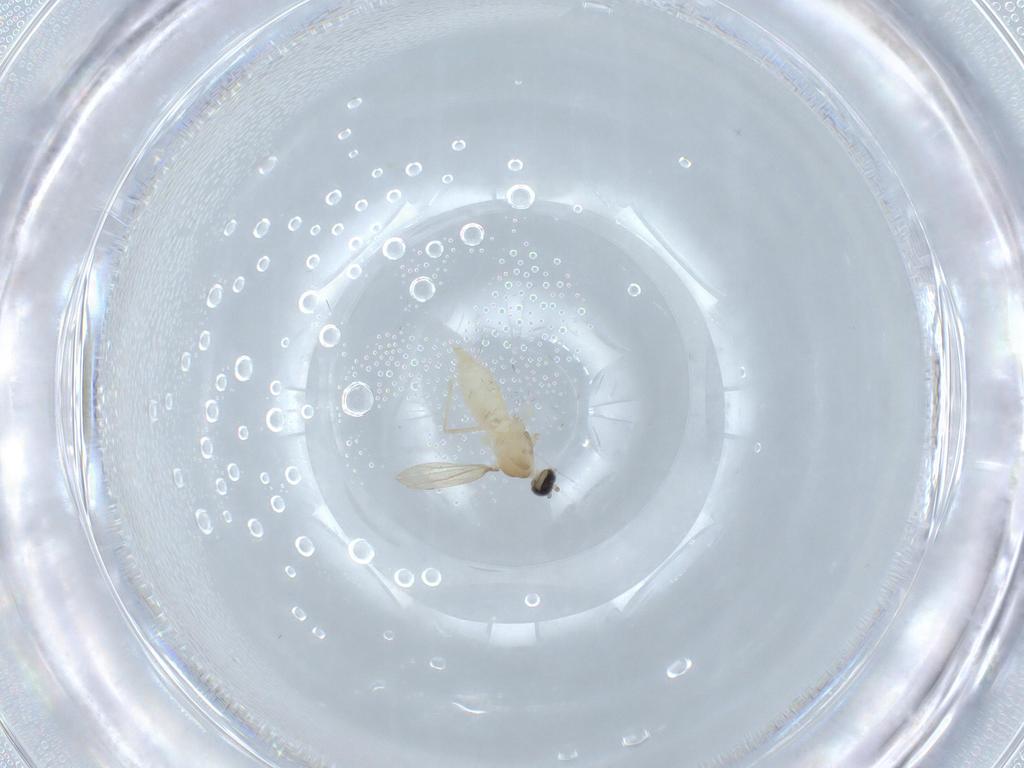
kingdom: Animalia
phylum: Arthropoda
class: Insecta
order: Diptera
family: Cecidomyiidae
